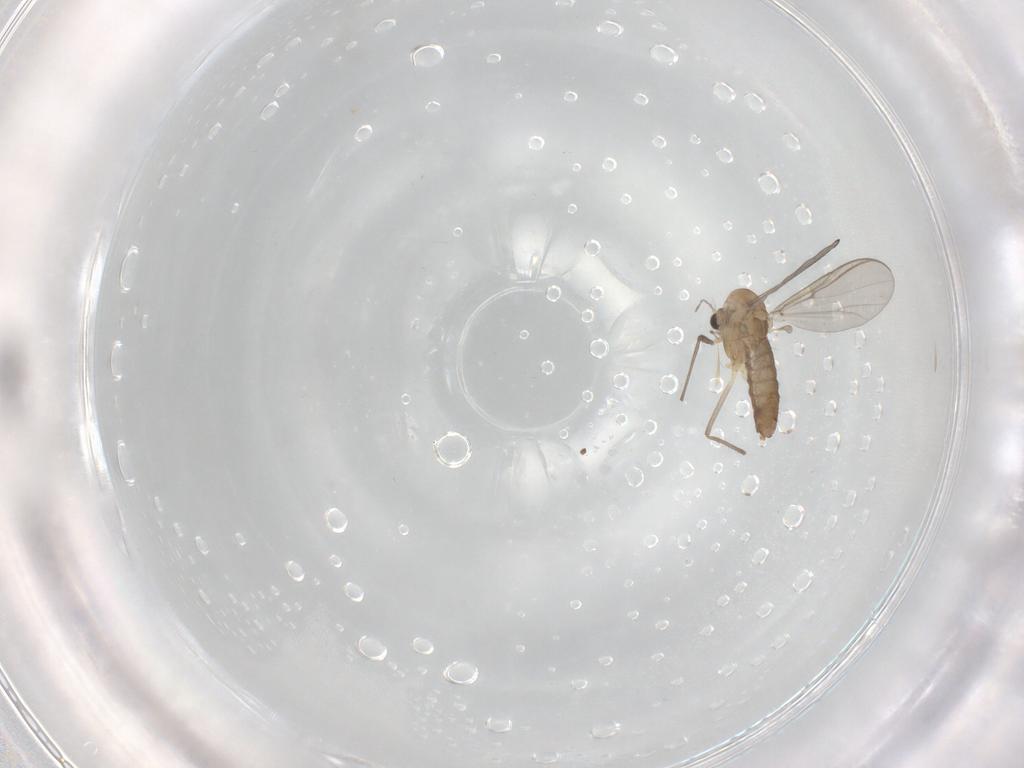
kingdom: Animalia
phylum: Arthropoda
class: Insecta
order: Diptera
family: Chironomidae
